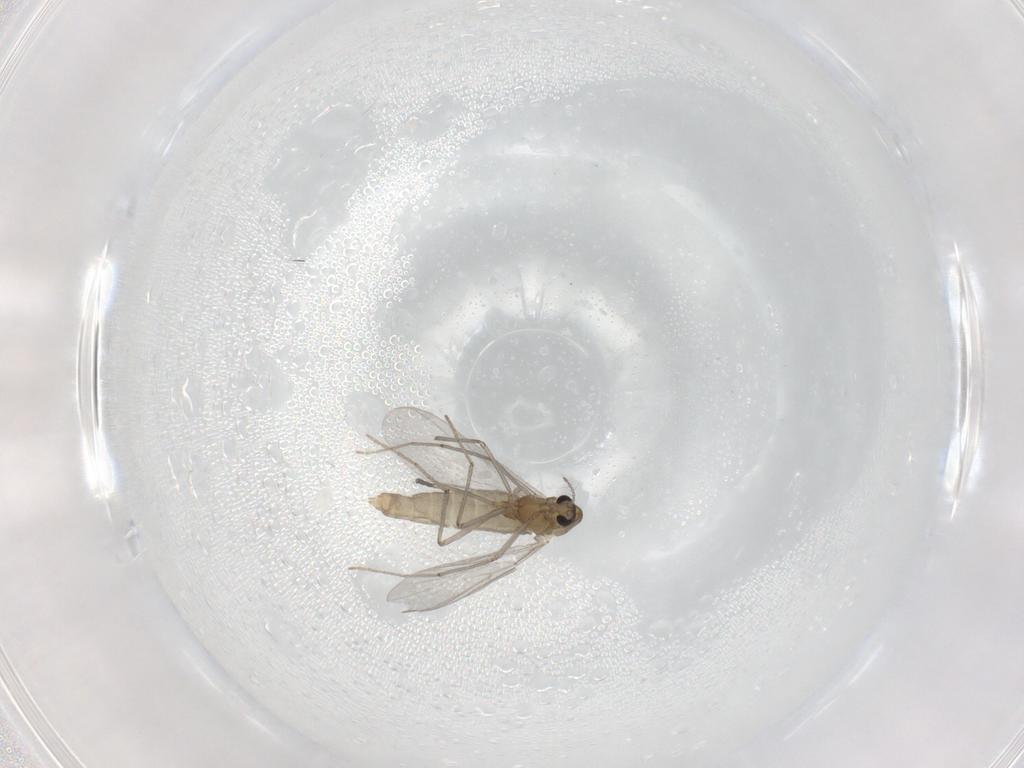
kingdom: Animalia
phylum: Arthropoda
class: Insecta
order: Diptera
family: Chironomidae
